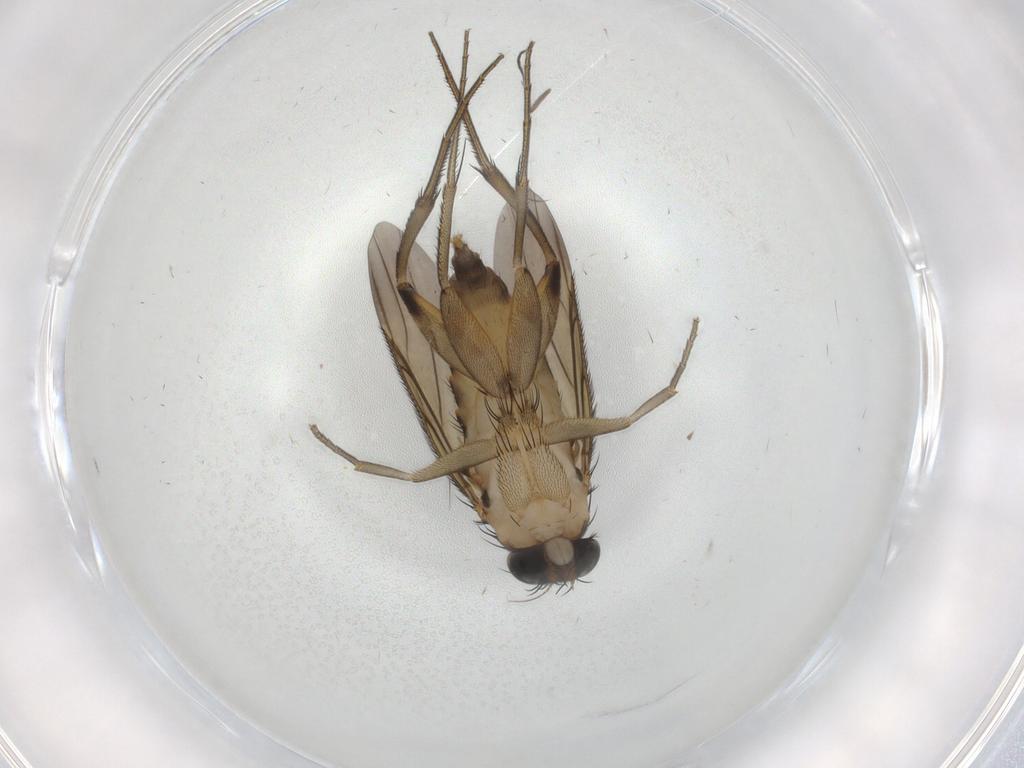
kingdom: Animalia
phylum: Arthropoda
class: Insecta
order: Diptera
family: Phoridae
